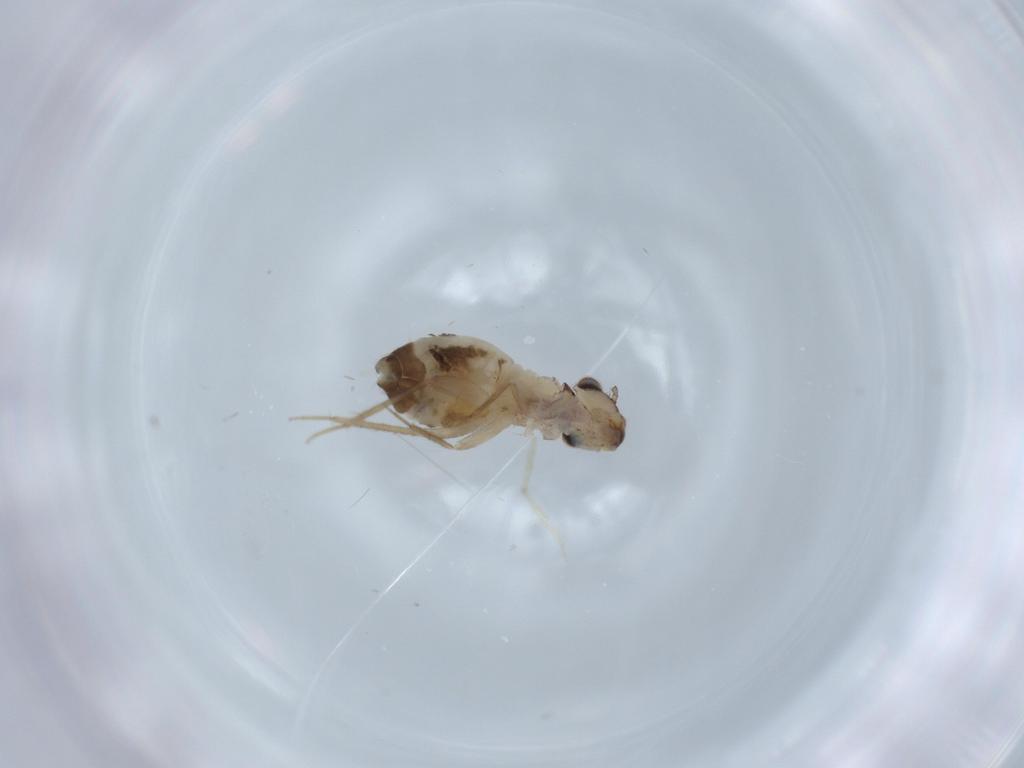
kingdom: Animalia
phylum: Arthropoda
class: Insecta
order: Psocodea
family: Lepidopsocidae
